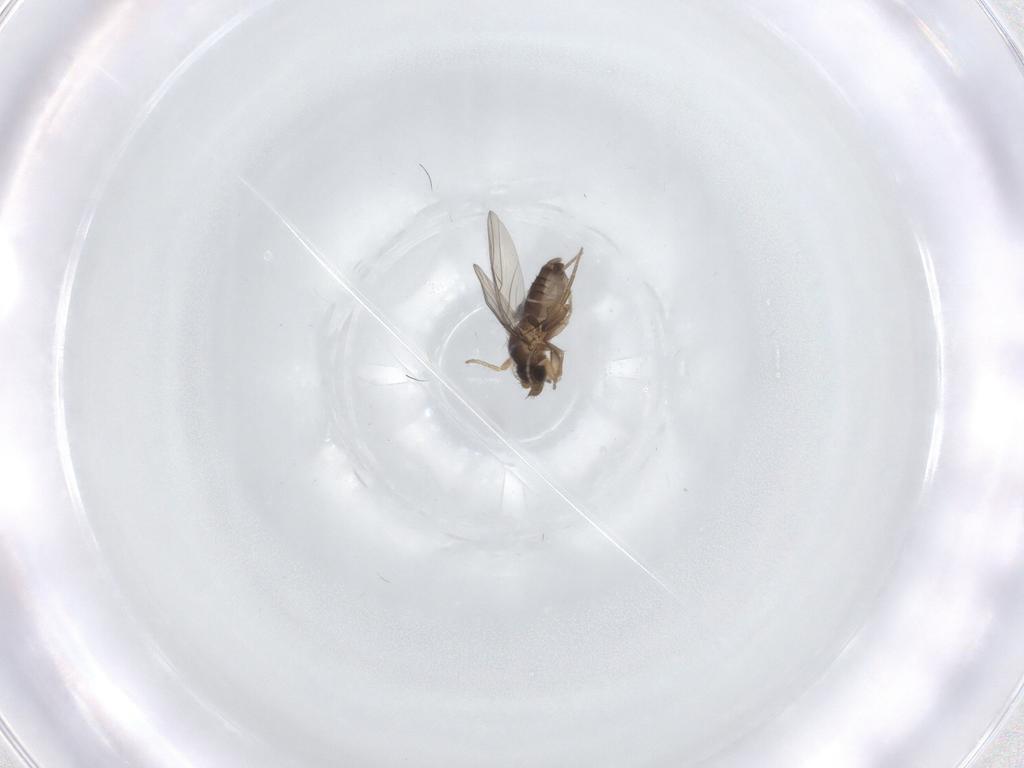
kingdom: Animalia
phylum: Arthropoda
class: Insecta
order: Diptera
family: Phoridae
